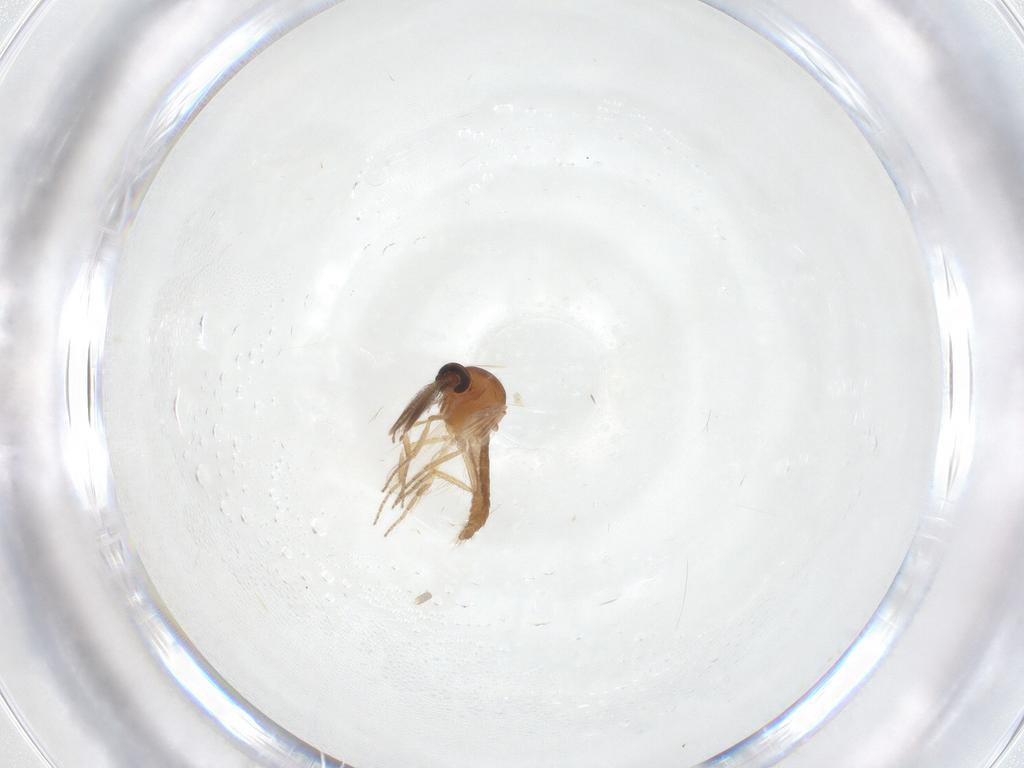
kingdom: Animalia
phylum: Arthropoda
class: Insecta
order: Diptera
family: Ceratopogonidae
